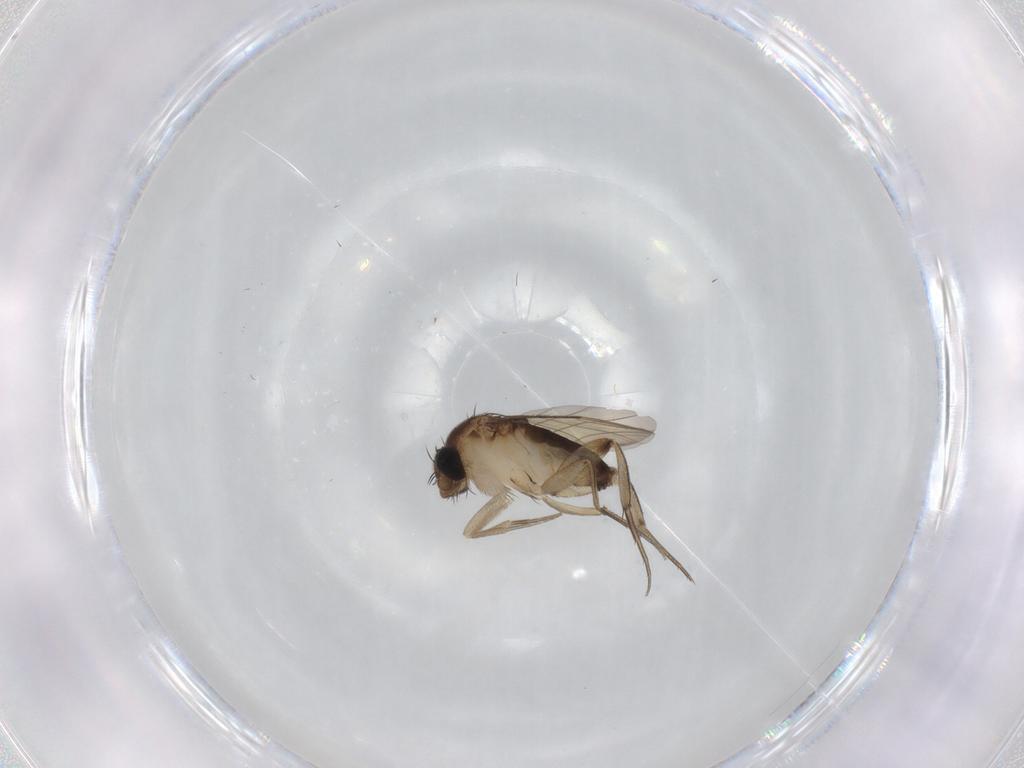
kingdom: Animalia
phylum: Arthropoda
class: Insecta
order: Diptera
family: Phoridae
